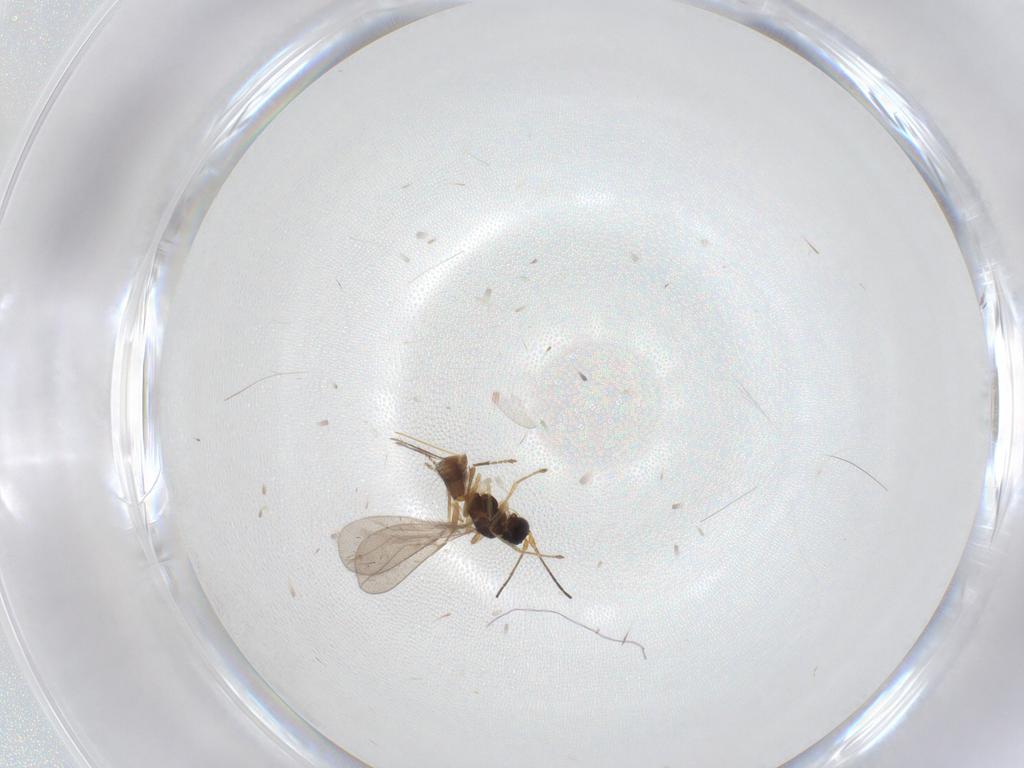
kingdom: Animalia
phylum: Arthropoda
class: Insecta
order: Hymenoptera
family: Braconidae
